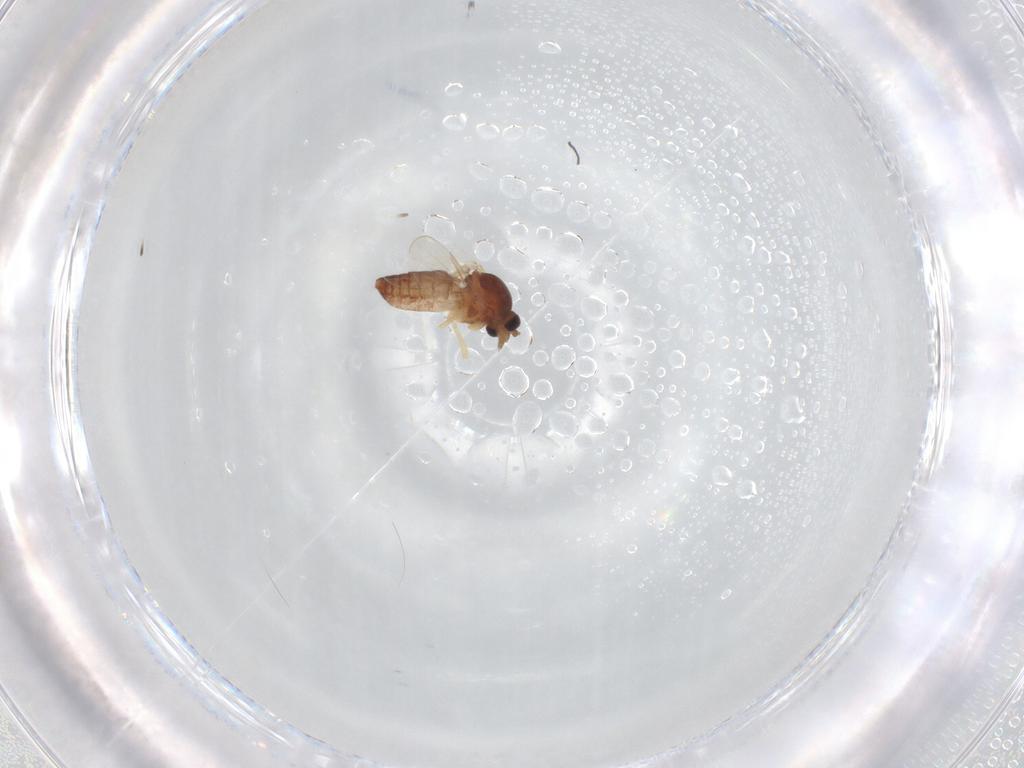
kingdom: Animalia
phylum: Arthropoda
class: Insecta
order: Diptera
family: Ceratopogonidae
